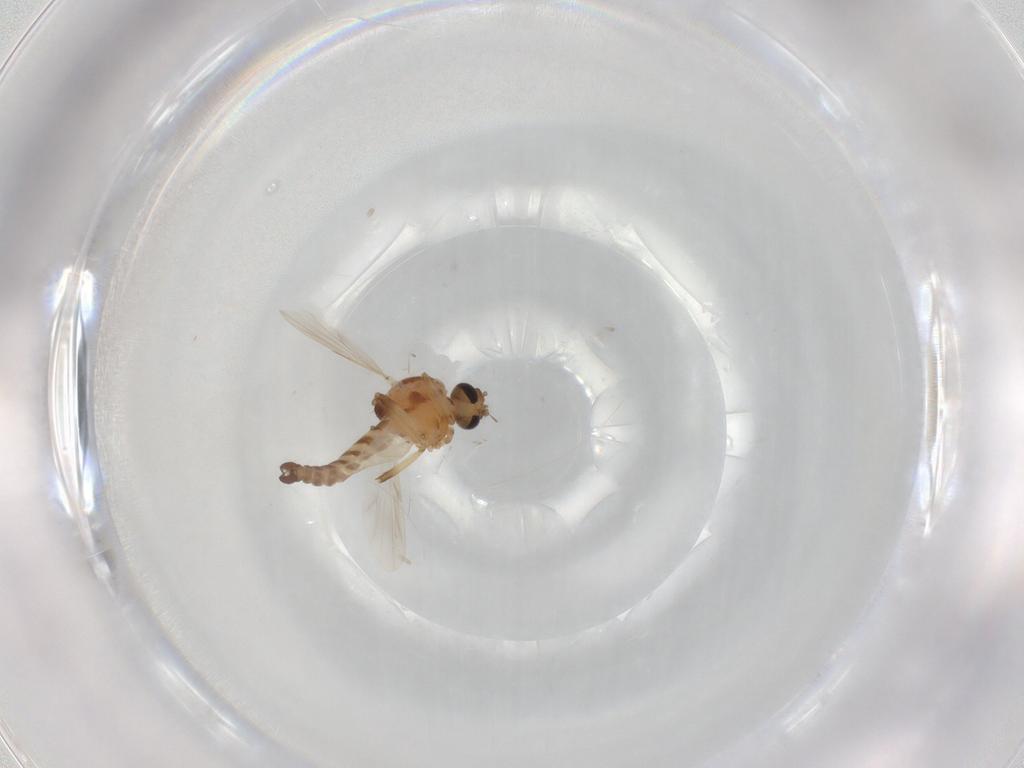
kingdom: Animalia
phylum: Arthropoda
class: Insecta
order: Diptera
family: Ceratopogonidae
